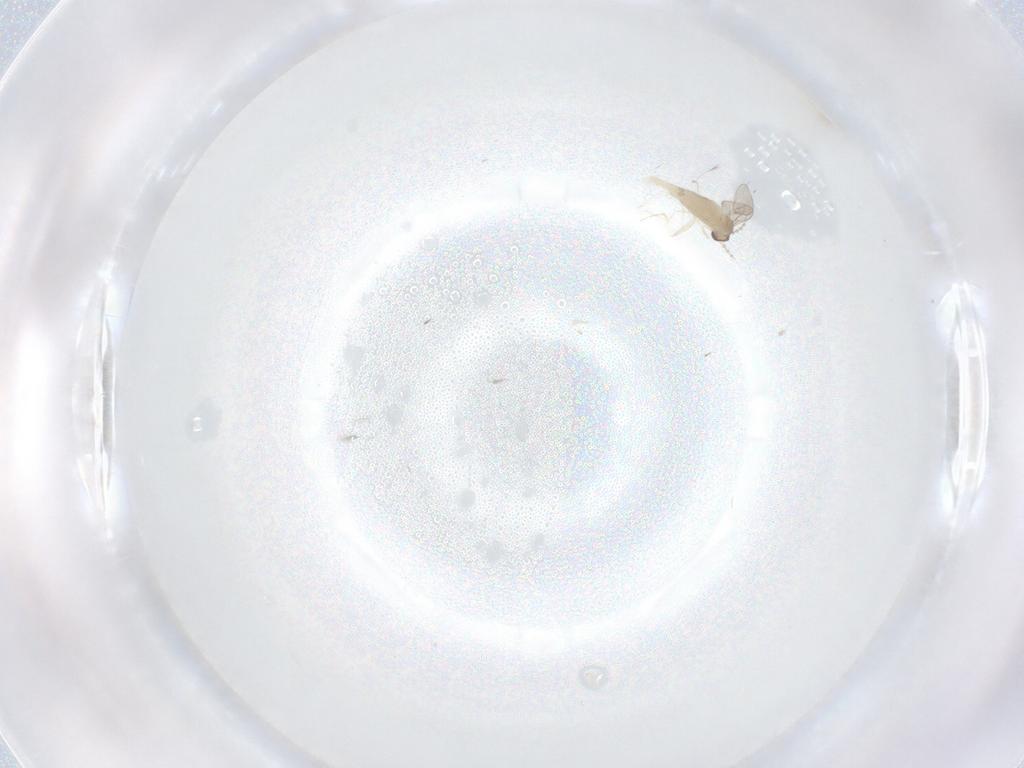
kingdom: Animalia
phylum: Arthropoda
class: Insecta
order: Diptera
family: Cecidomyiidae
